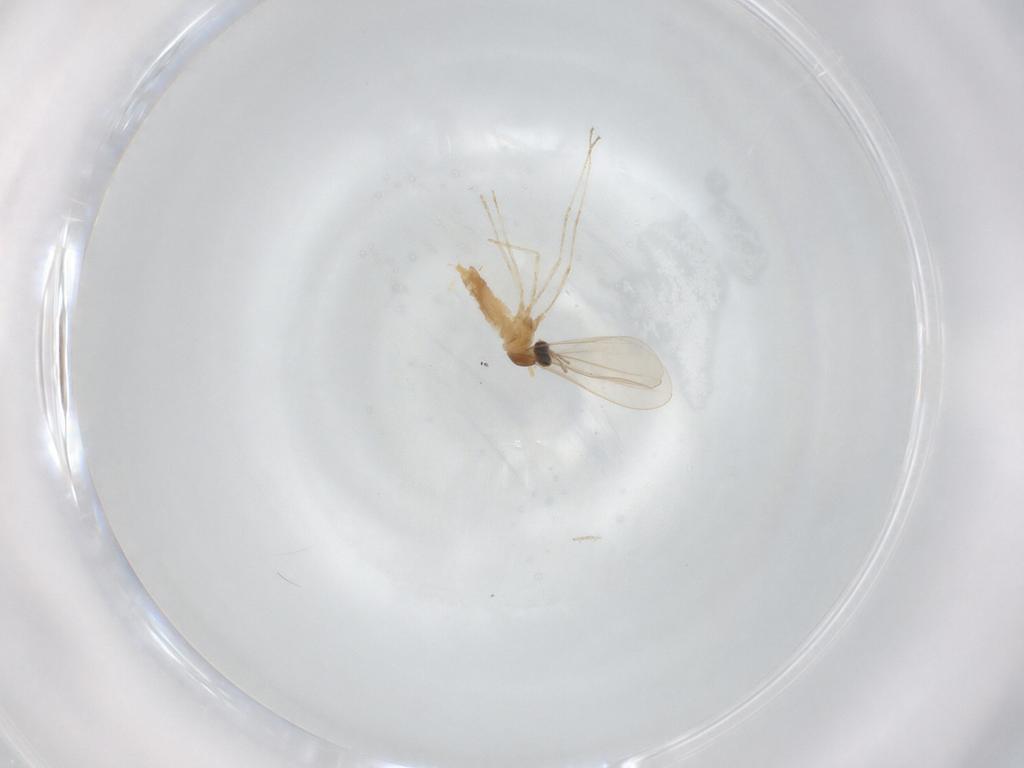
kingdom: Animalia
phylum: Arthropoda
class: Insecta
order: Diptera
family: Cecidomyiidae
